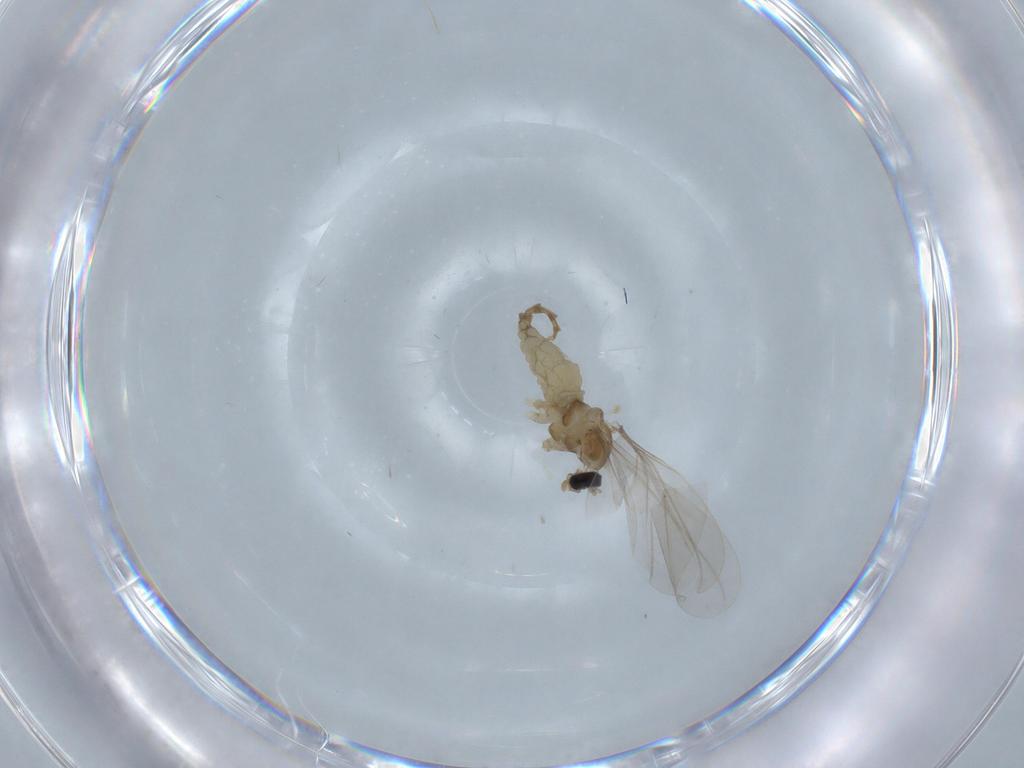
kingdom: Animalia
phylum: Arthropoda
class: Insecta
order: Diptera
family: Cecidomyiidae
